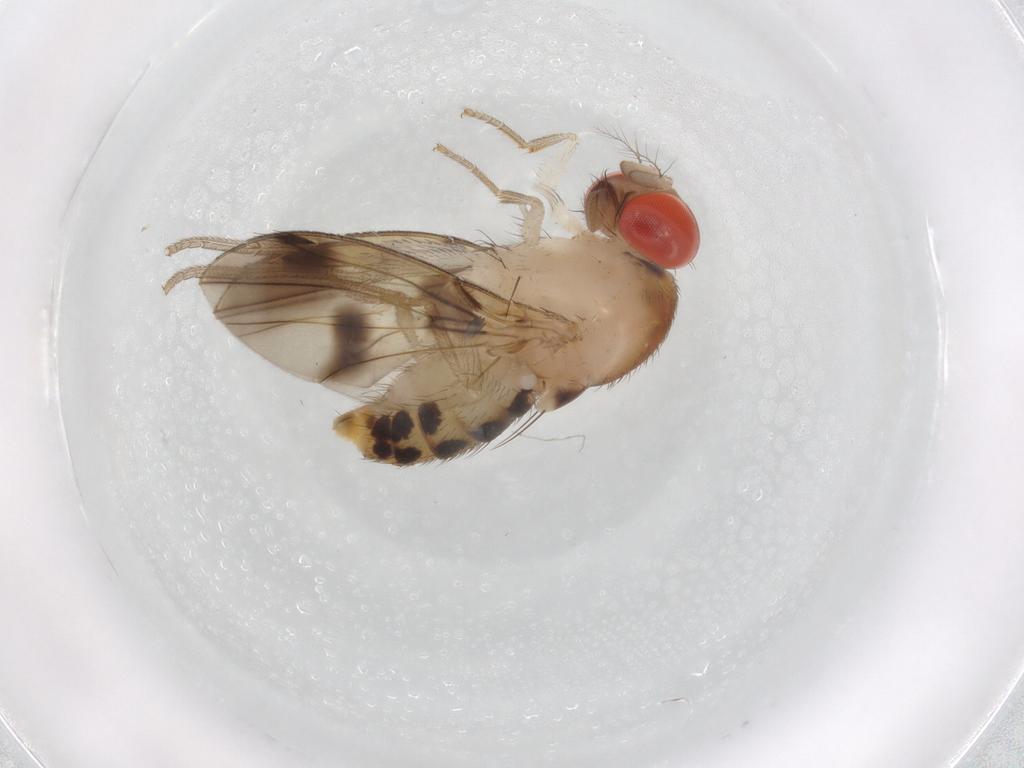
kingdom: Animalia
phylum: Arthropoda
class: Insecta
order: Diptera
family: Drosophilidae
